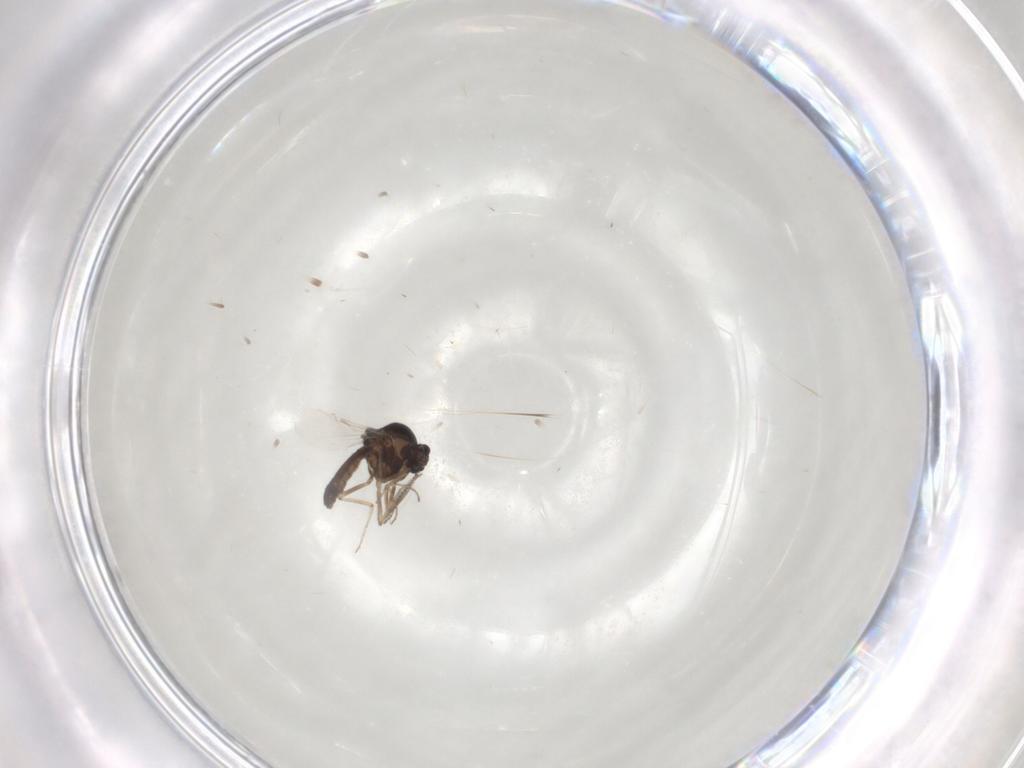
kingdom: Animalia
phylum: Arthropoda
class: Insecta
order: Diptera
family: Ceratopogonidae
